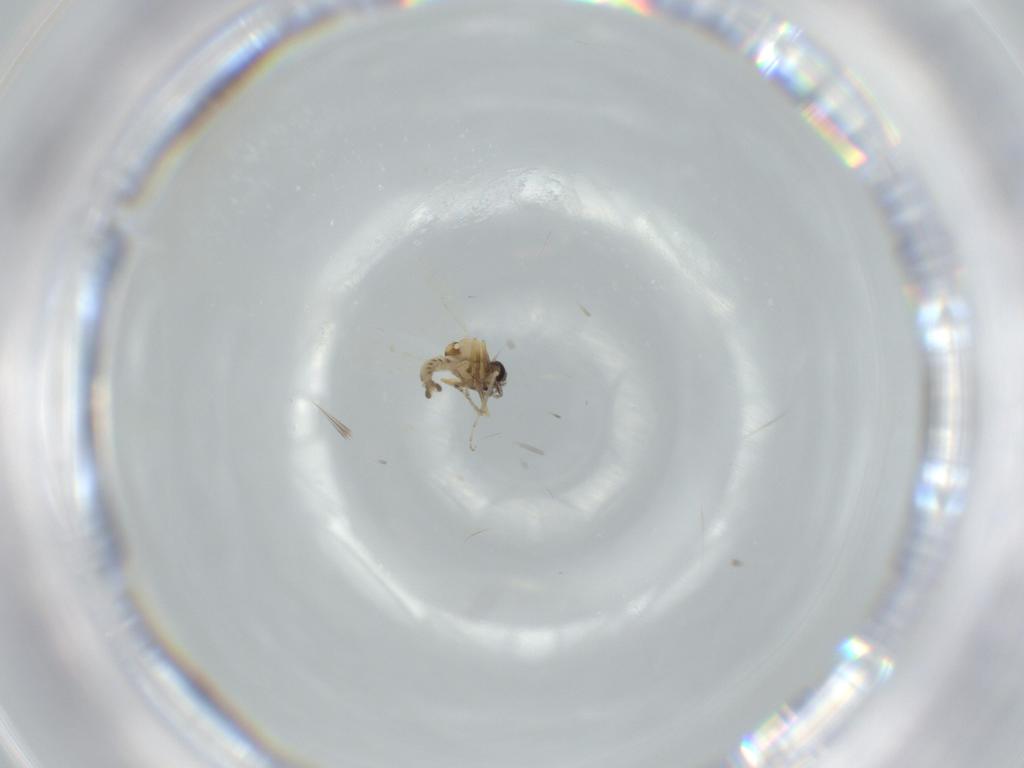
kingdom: Animalia
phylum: Arthropoda
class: Insecta
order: Diptera
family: Ceratopogonidae
